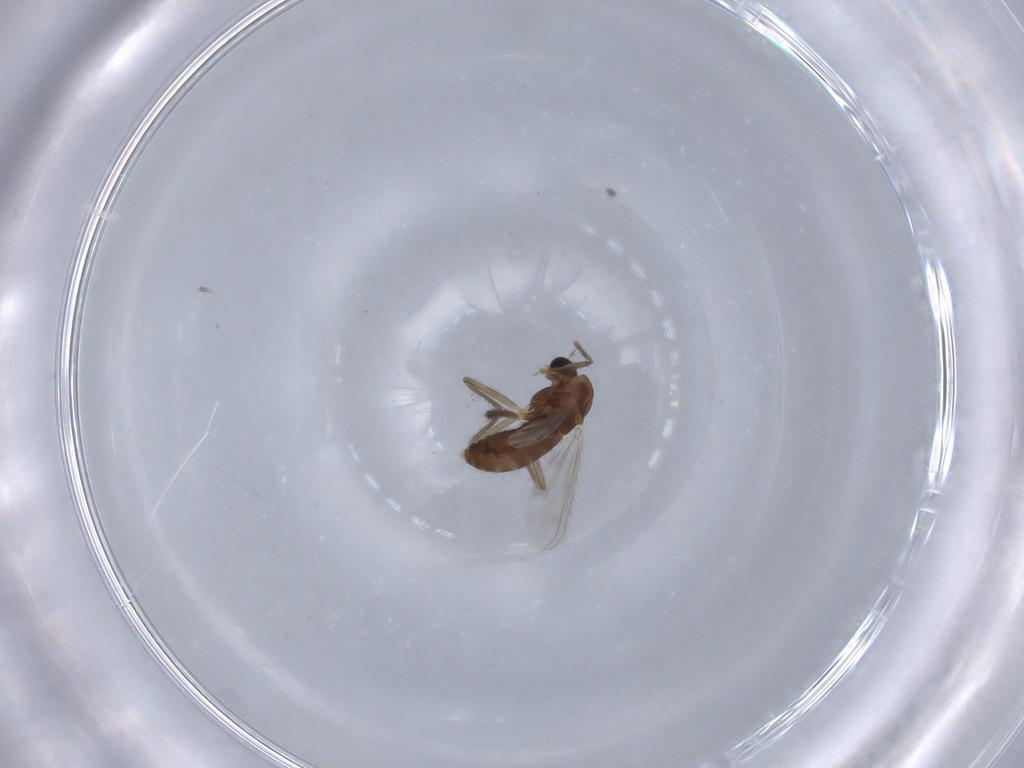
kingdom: Animalia
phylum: Arthropoda
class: Insecta
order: Diptera
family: Chironomidae
